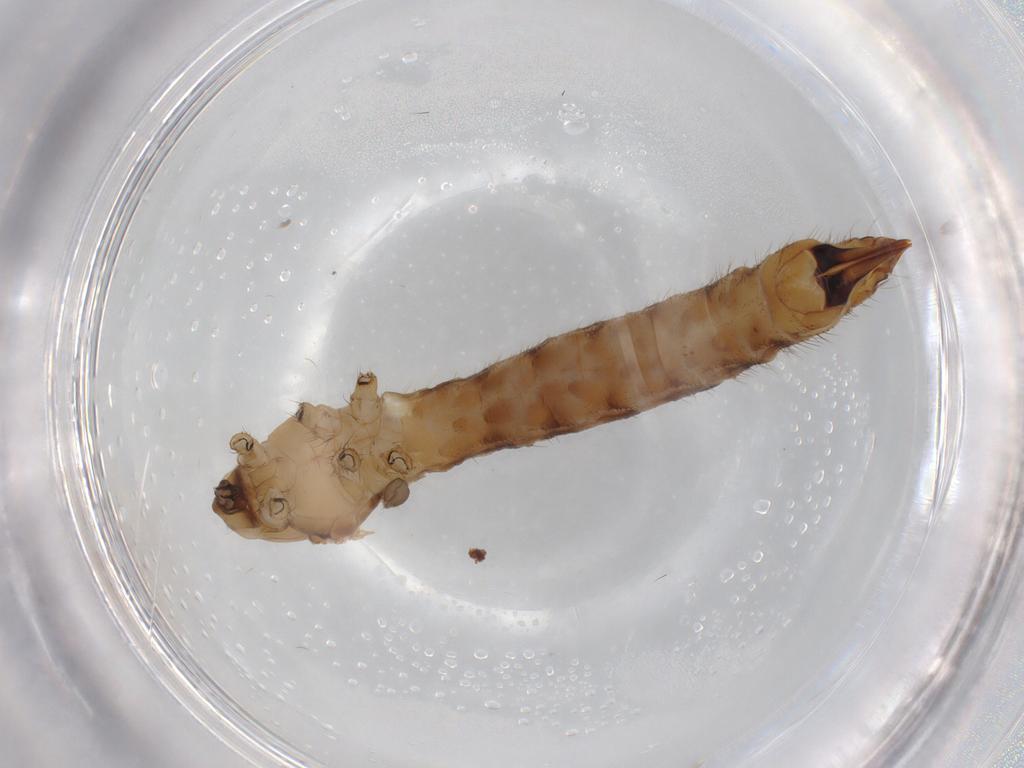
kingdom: Animalia
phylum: Arthropoda
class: Insecta
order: Diptera
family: Limoniidae
